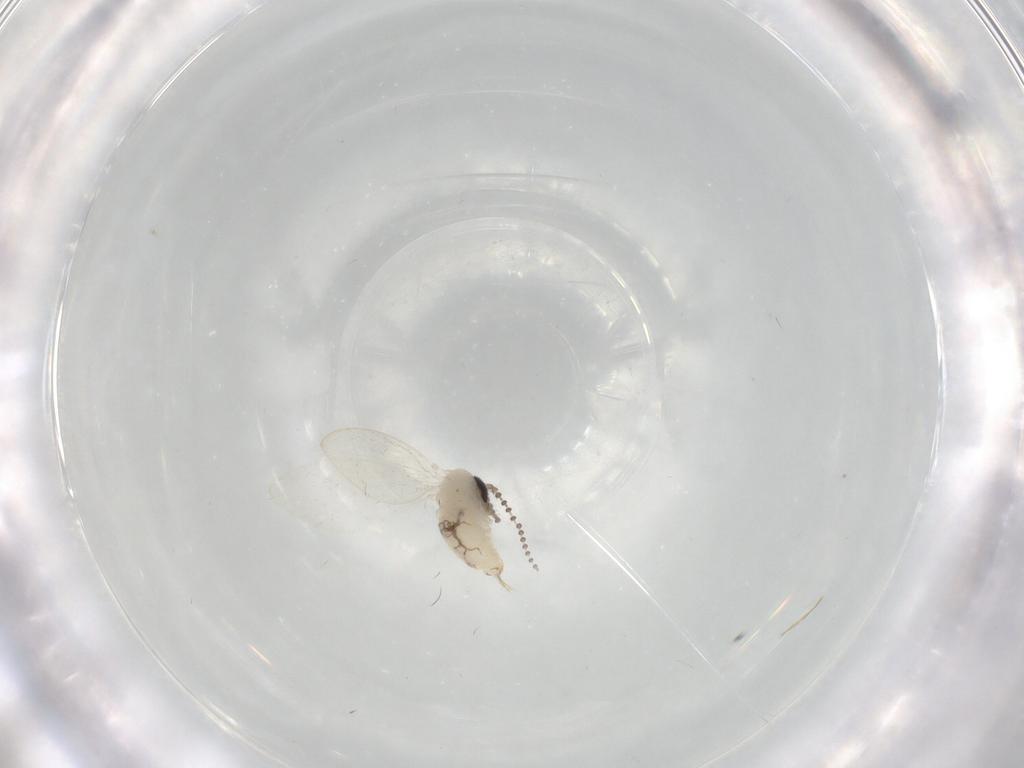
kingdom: Animalia
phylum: Arthropoda
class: Insecta
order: Diptera
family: Psychodidae
